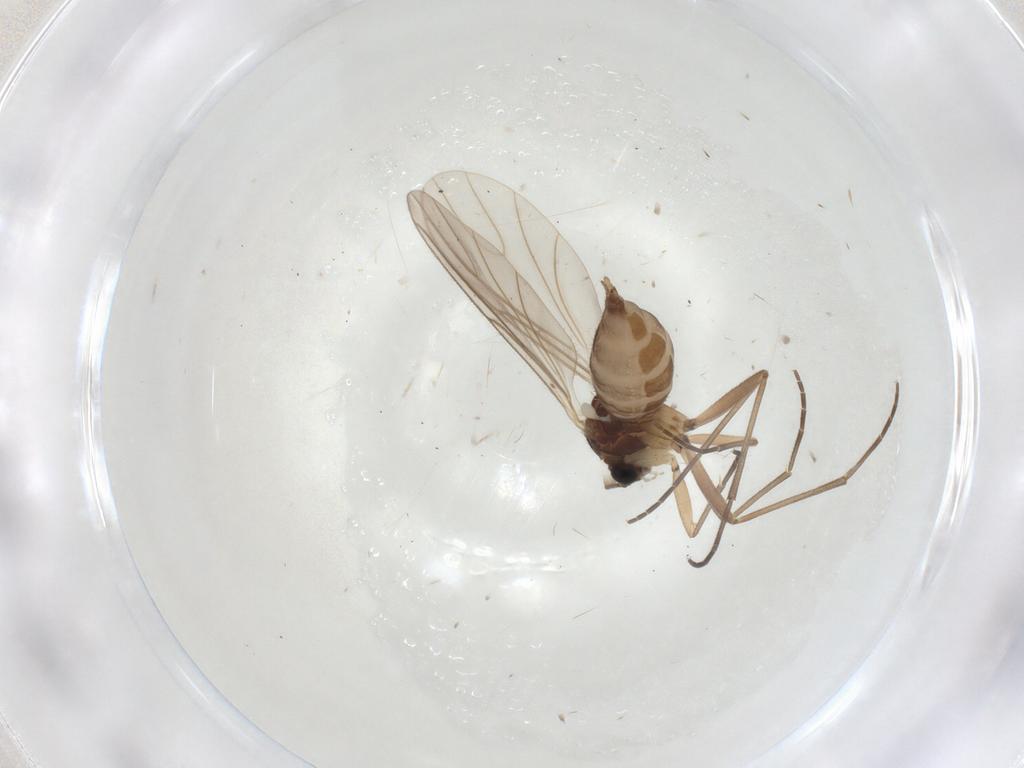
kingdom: Animalia
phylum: Arthropoda
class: Insecta
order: Diptera
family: Sciaridae
